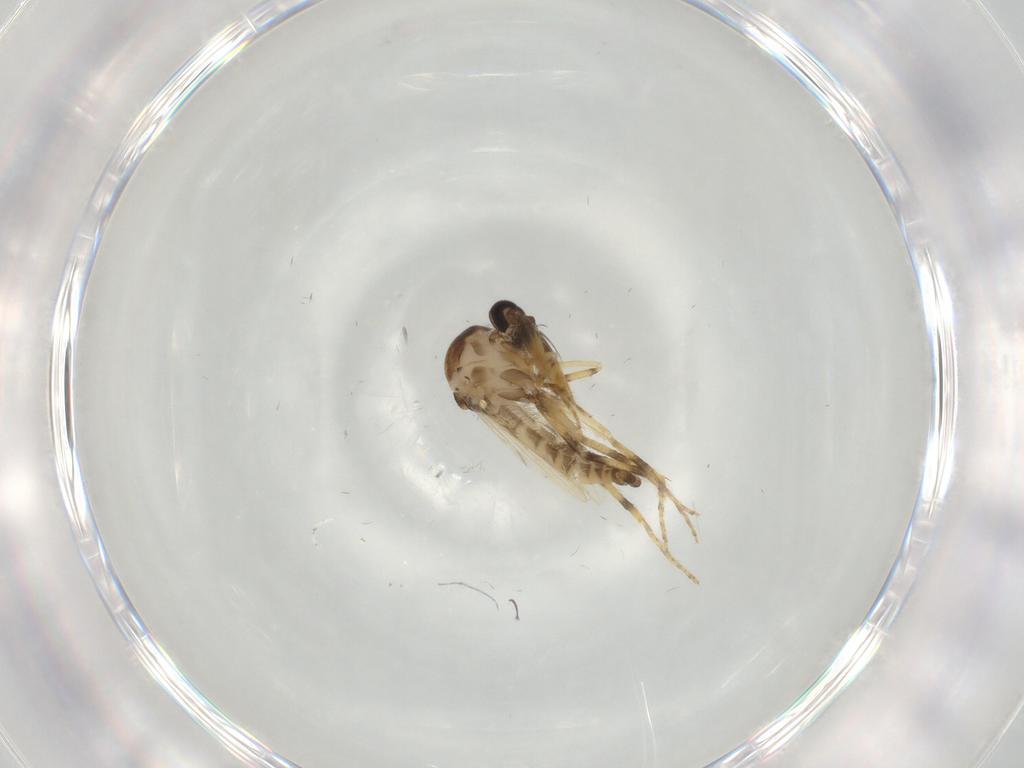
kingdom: Animalia
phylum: Arthropoda
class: Insecta
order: Diptera
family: Ceratopogonidae
